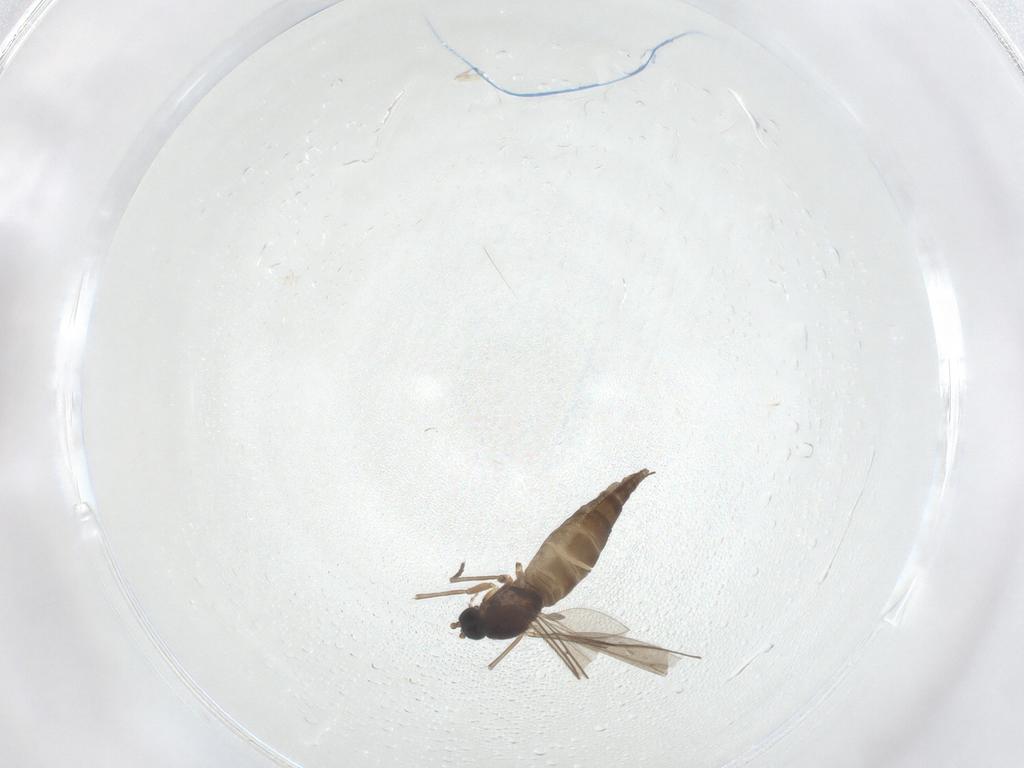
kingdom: Animalia
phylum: Arthropoda
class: Insecta
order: Diptera
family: Sciaridae
